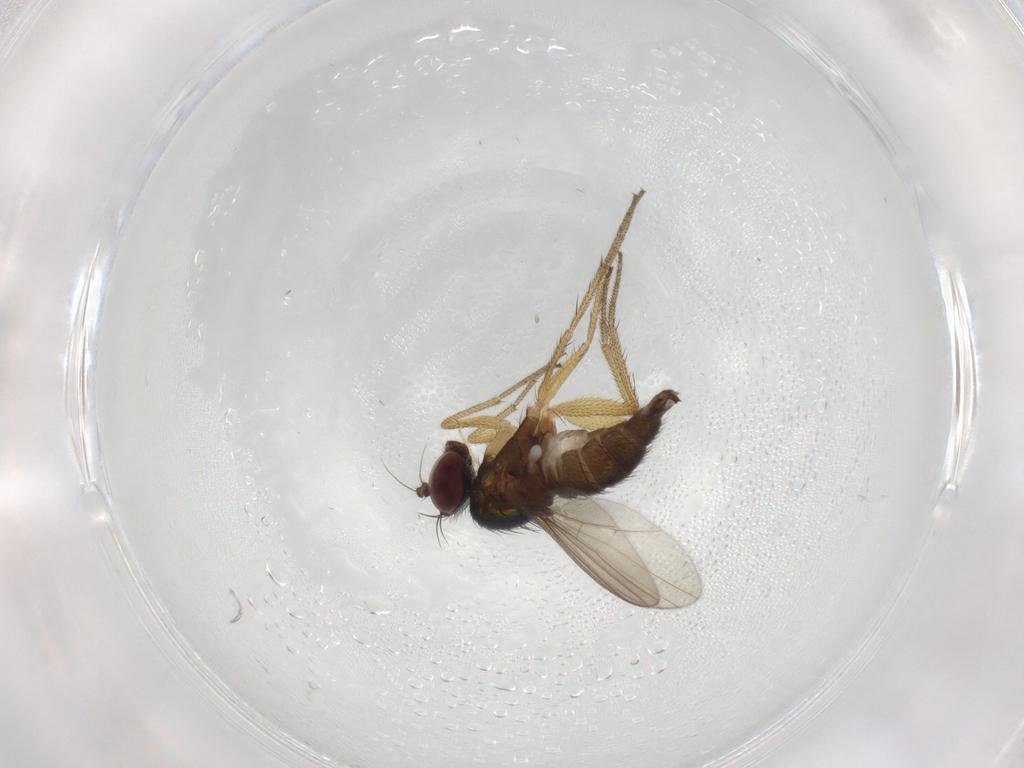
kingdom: Animalia
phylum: Arthropoda
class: Insecta
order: Diptera
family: Dolichopodidae
